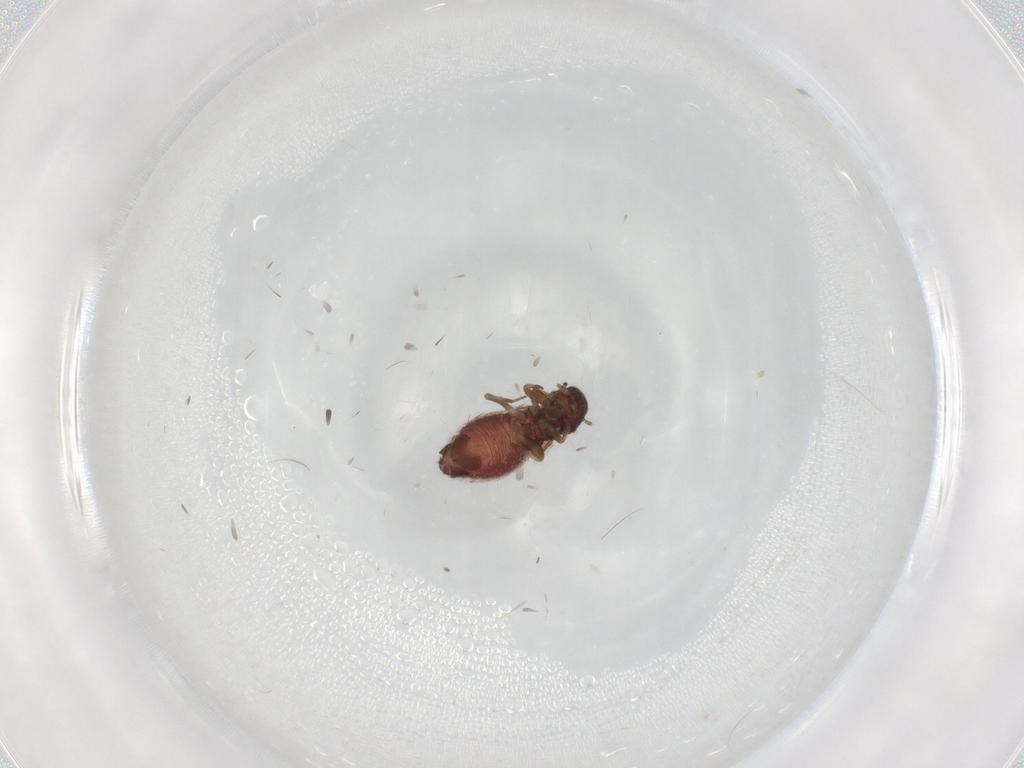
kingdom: Animalia
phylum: Arthropoda
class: Insecta
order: Psocodea
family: Archipsocidae
